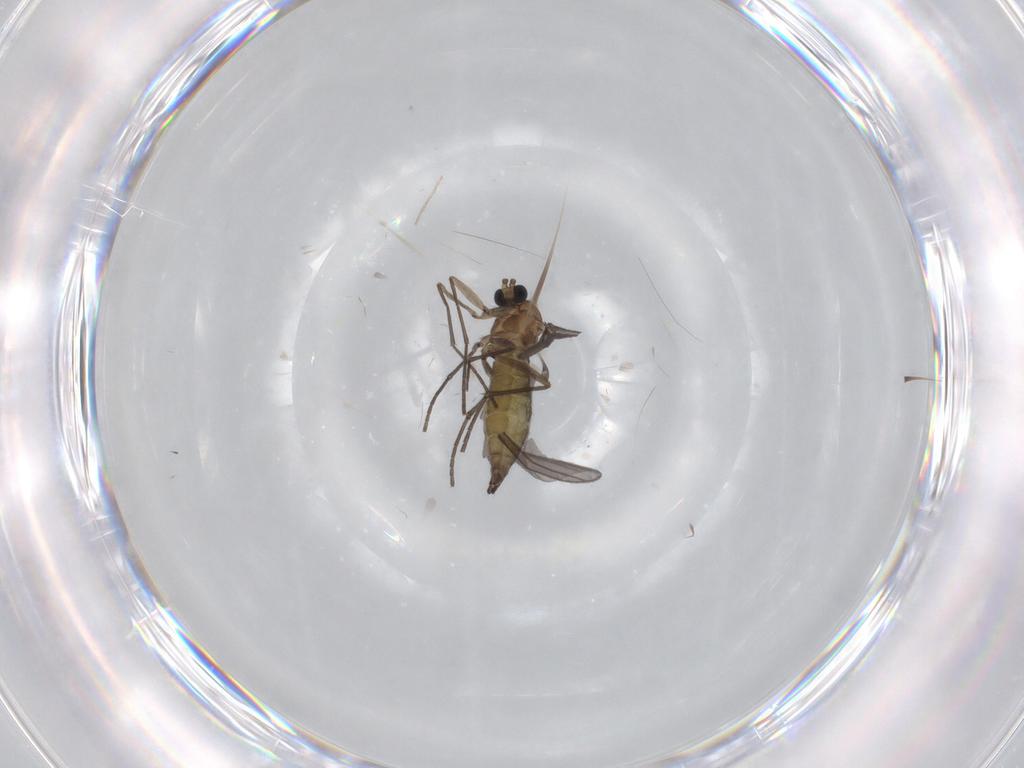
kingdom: Animalia
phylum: Arthropoda
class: Insecta
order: Diptera
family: Sciaridae
